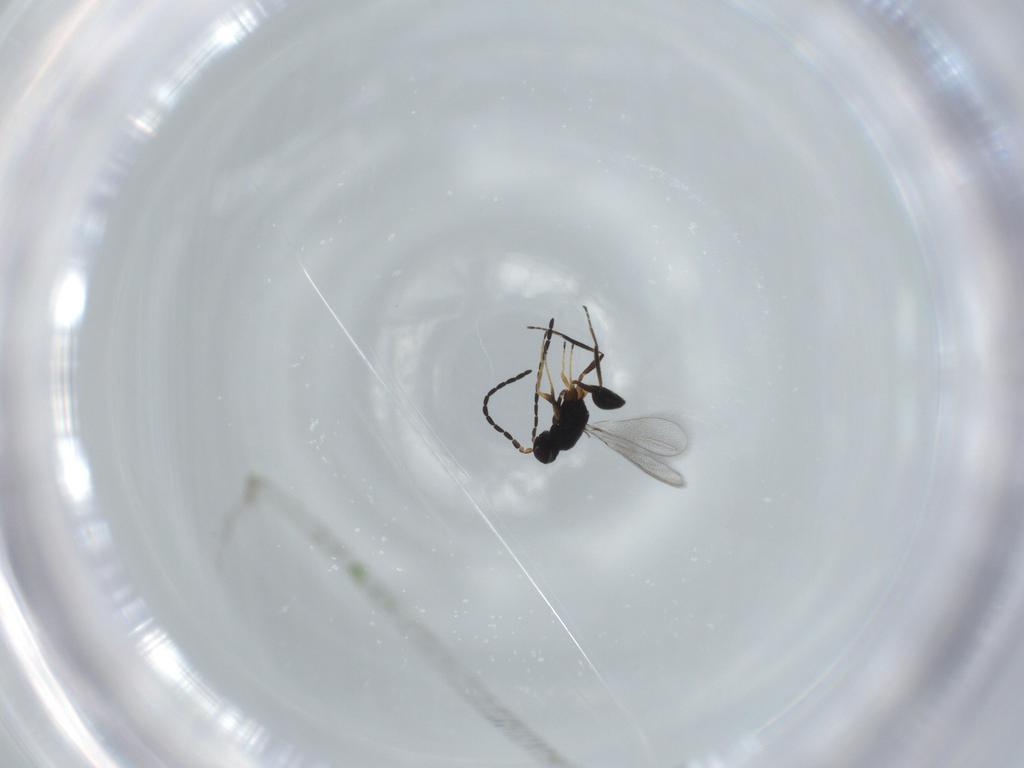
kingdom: Animalia
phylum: Arthropoda
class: Insecta
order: Hymenoptera
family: Mymaridae
